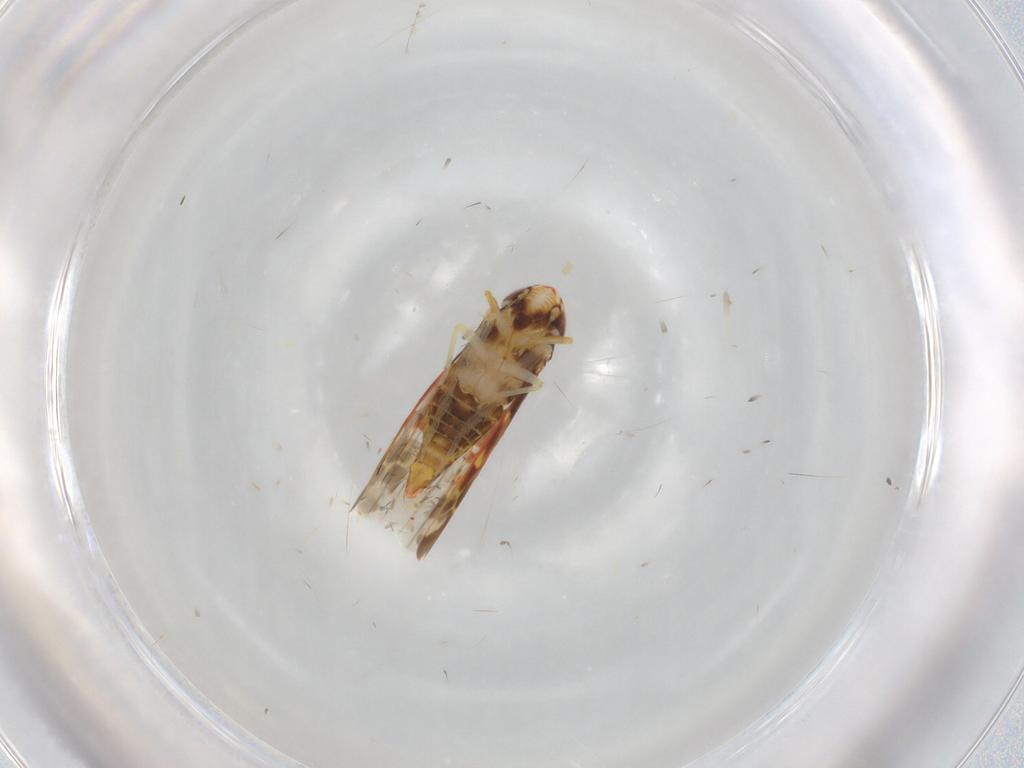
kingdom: Animalia
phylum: Arthropoda
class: Insecta
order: Hemiptera
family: Cicadellidae
